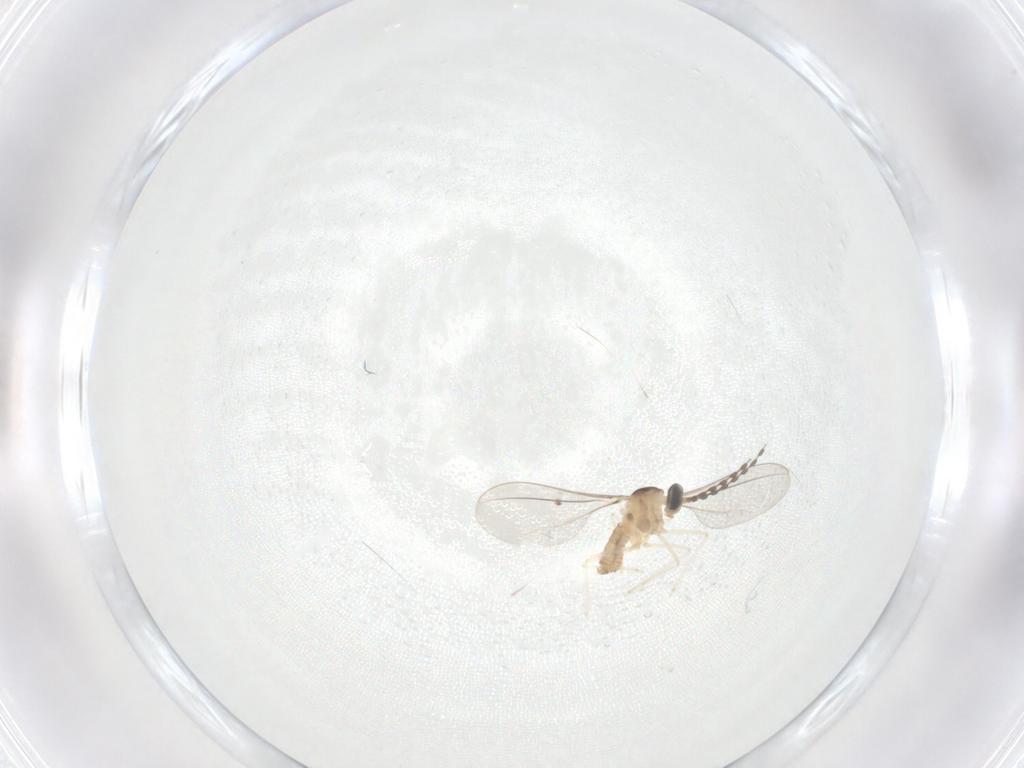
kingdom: Animalia
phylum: Arthropoda
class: Insecta
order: Diptera
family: Cecidomyiidae
